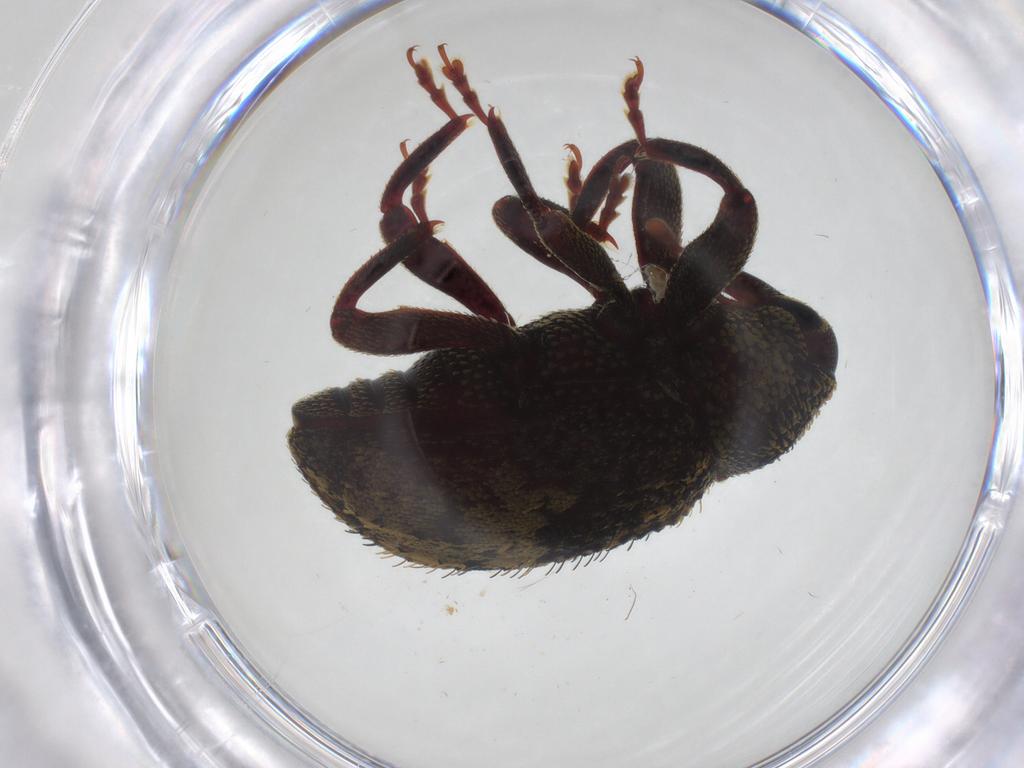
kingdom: Animalia
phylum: Arthropoda
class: Insecta
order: Coleoptera
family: Curculionidae
